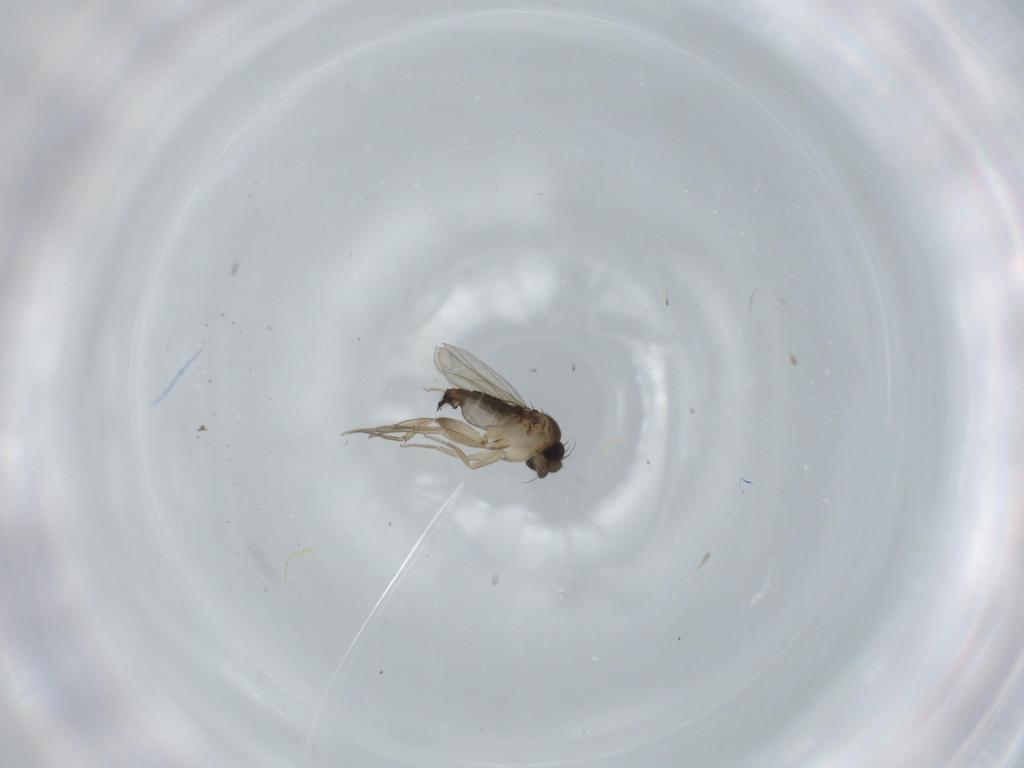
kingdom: Animalia
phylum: Arthropoda
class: Insecta
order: Diptera
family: Phoridae
